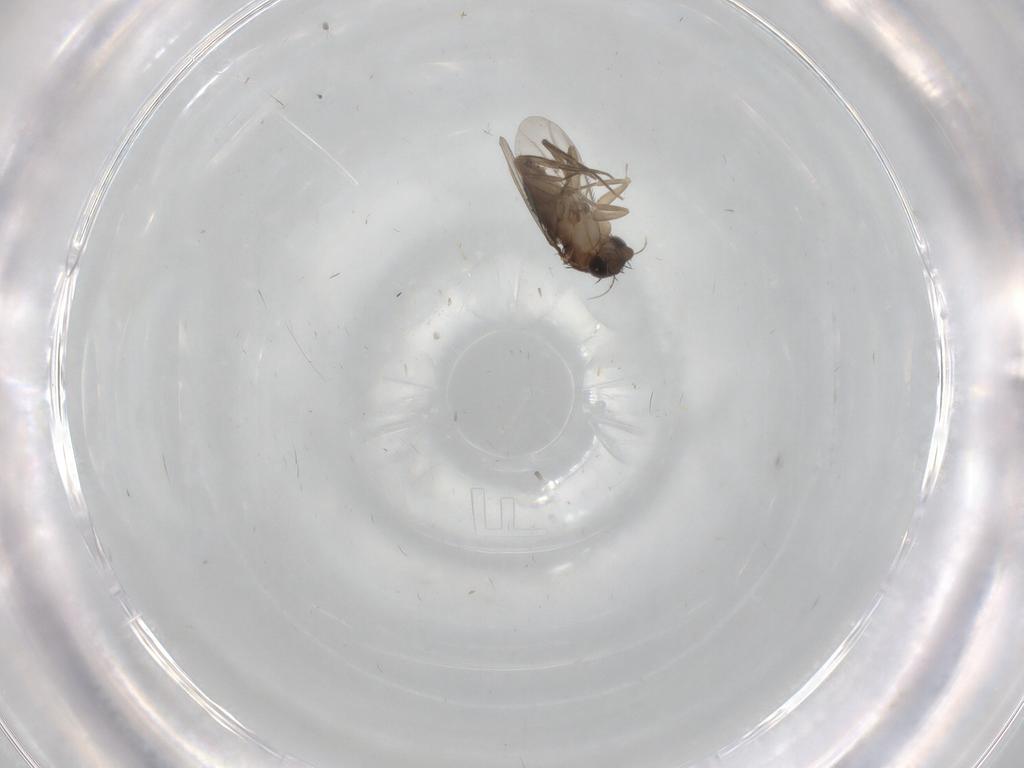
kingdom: Animalia
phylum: Arthropoda
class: Insecta
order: Diptera
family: Phoridae
